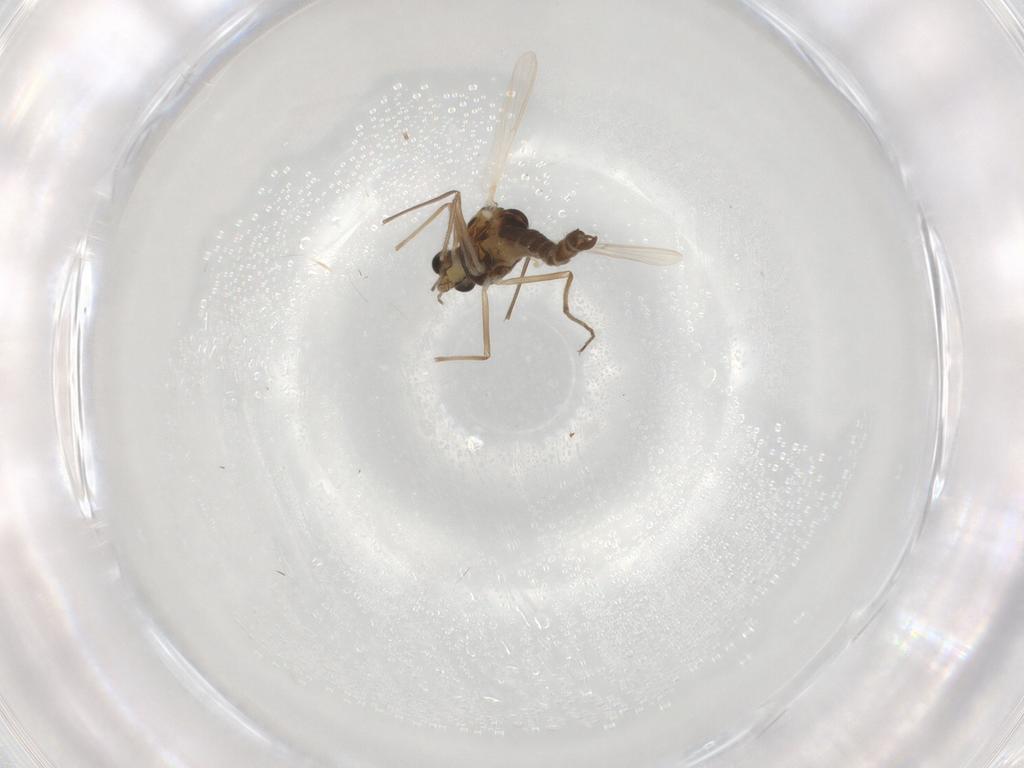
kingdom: Animalia
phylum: Arthropoda
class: Insecta
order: Diptera
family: Chironomidae
